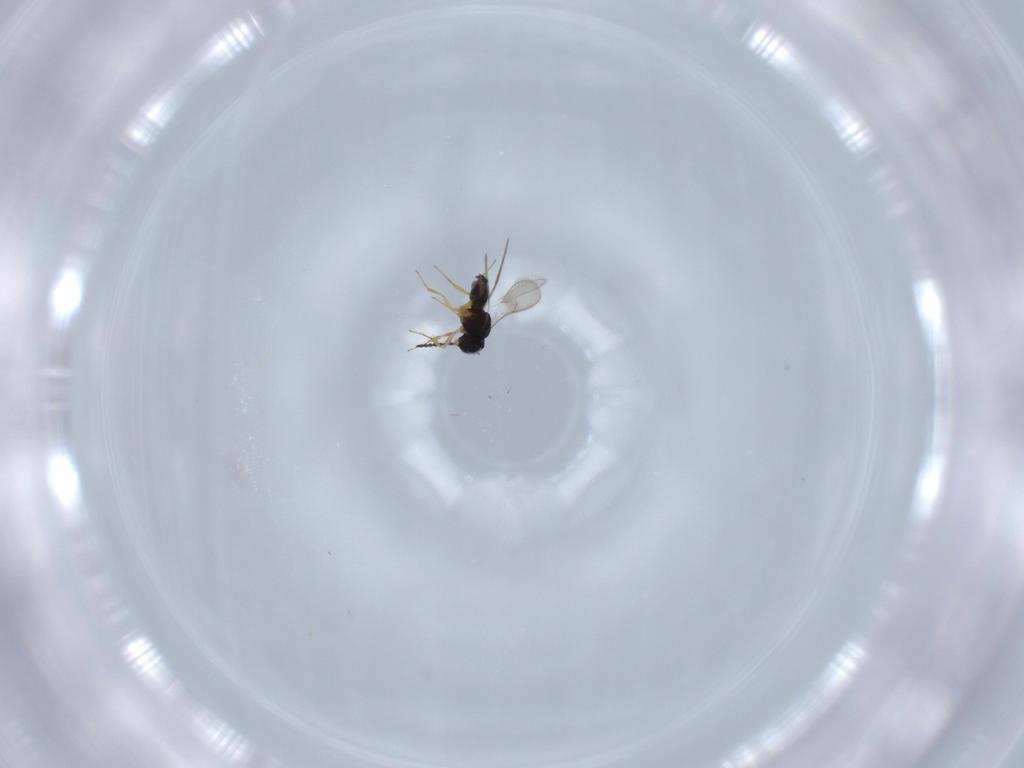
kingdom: Animalia
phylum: Arthropoda
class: Insecta
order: Hymenoptera
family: Scelionidae
